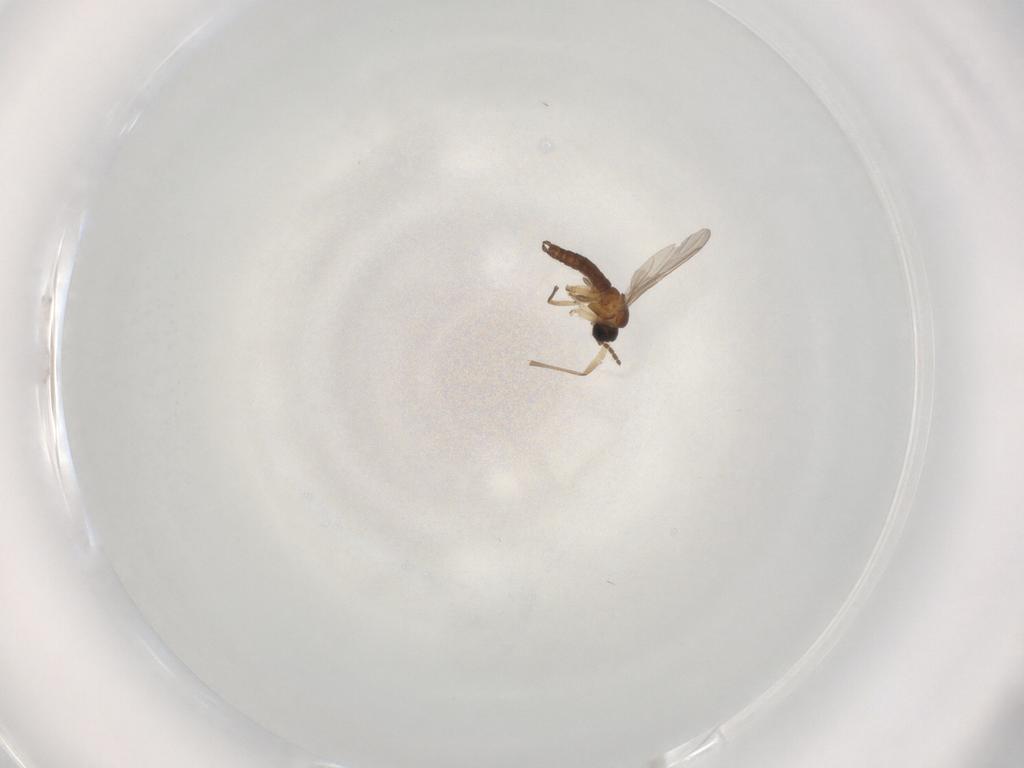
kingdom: Animalia
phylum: Arthropoda
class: Insecta
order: Diptera
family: Sciaridae
